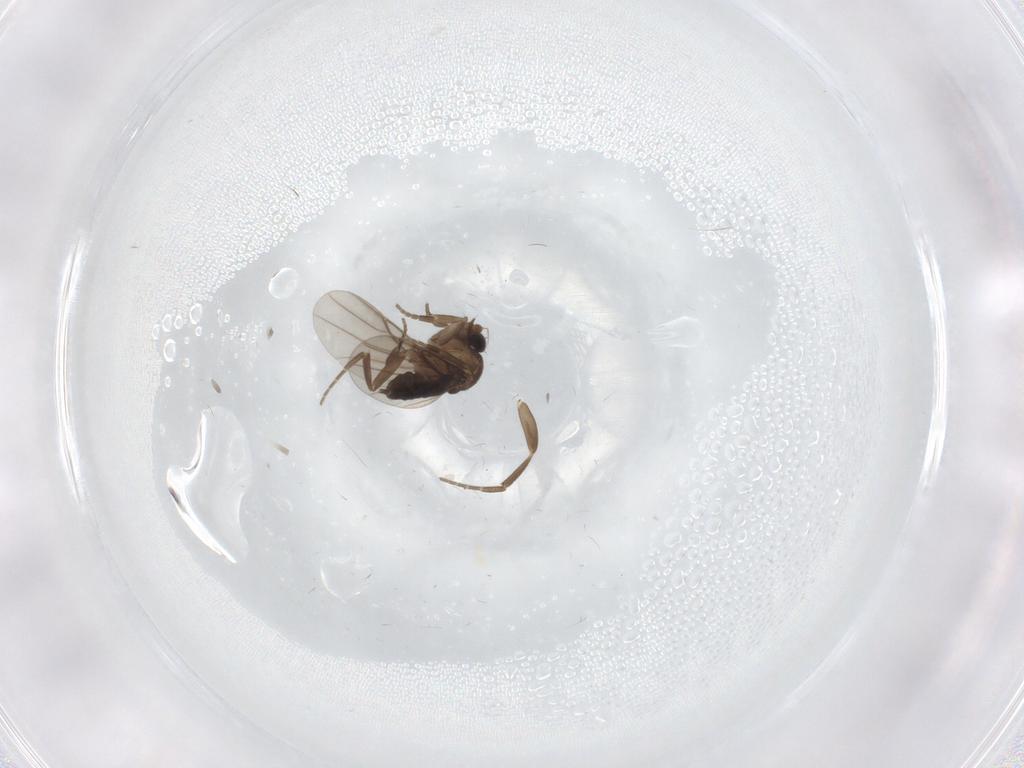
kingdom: Animalia
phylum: Arthropoda
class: Insecta
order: Diptera
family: Phoridae
